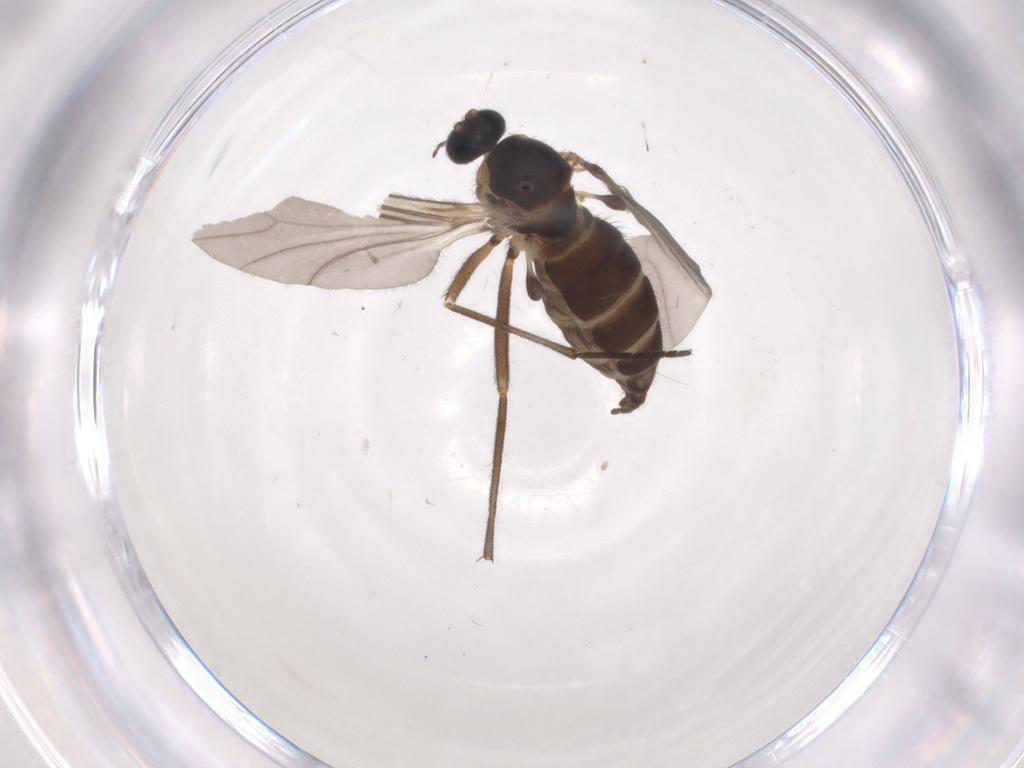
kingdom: Animalia
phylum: Arthropoda
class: Insecta
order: Diptera
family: Sciaridae
